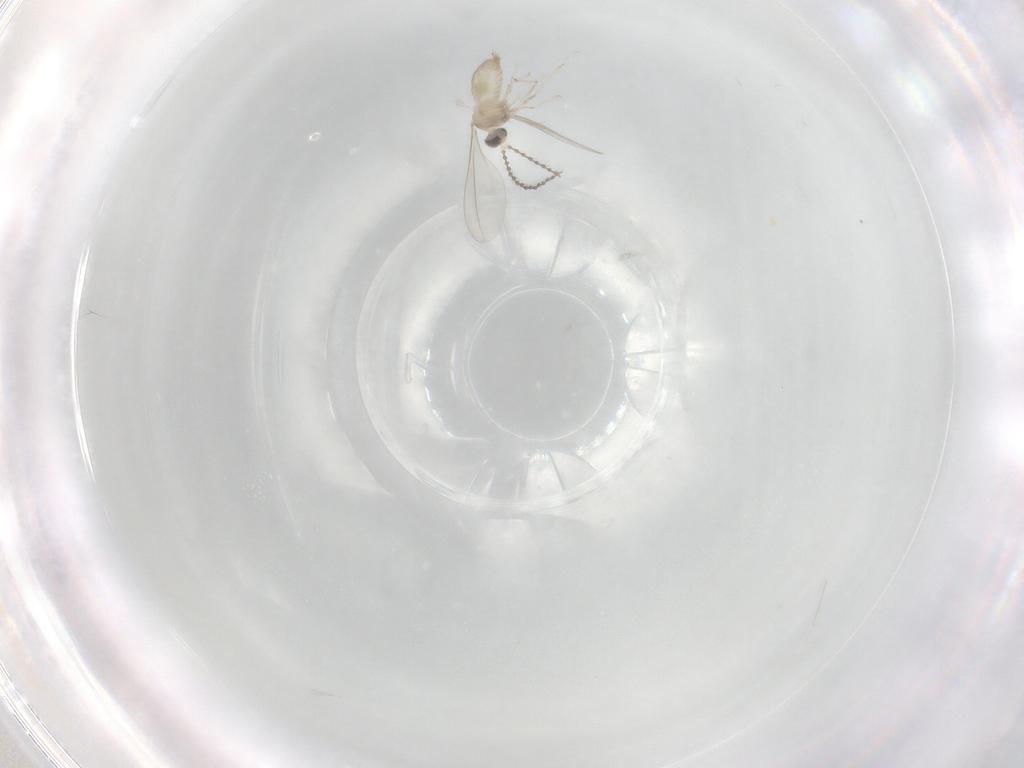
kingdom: Animalia
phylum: Arthropoda
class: Insecta
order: Diptera
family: Cecidomyiidae
